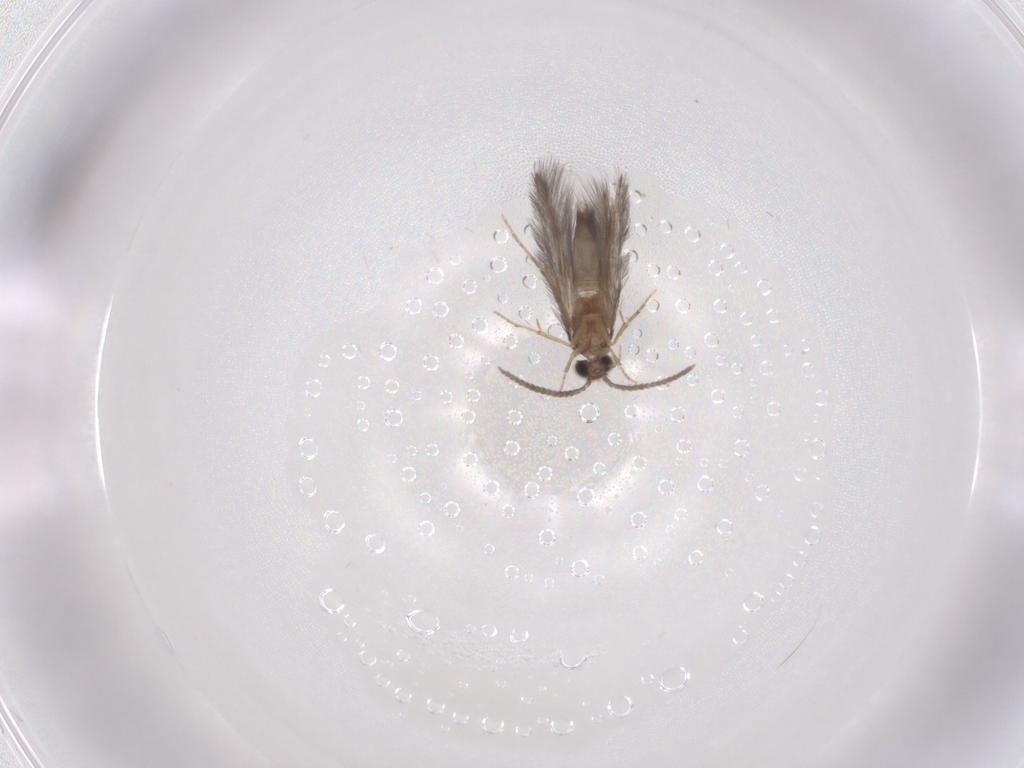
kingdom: Animalia
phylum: Arthropoda
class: Insecta
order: Trichoptera
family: Hydroptilidae
